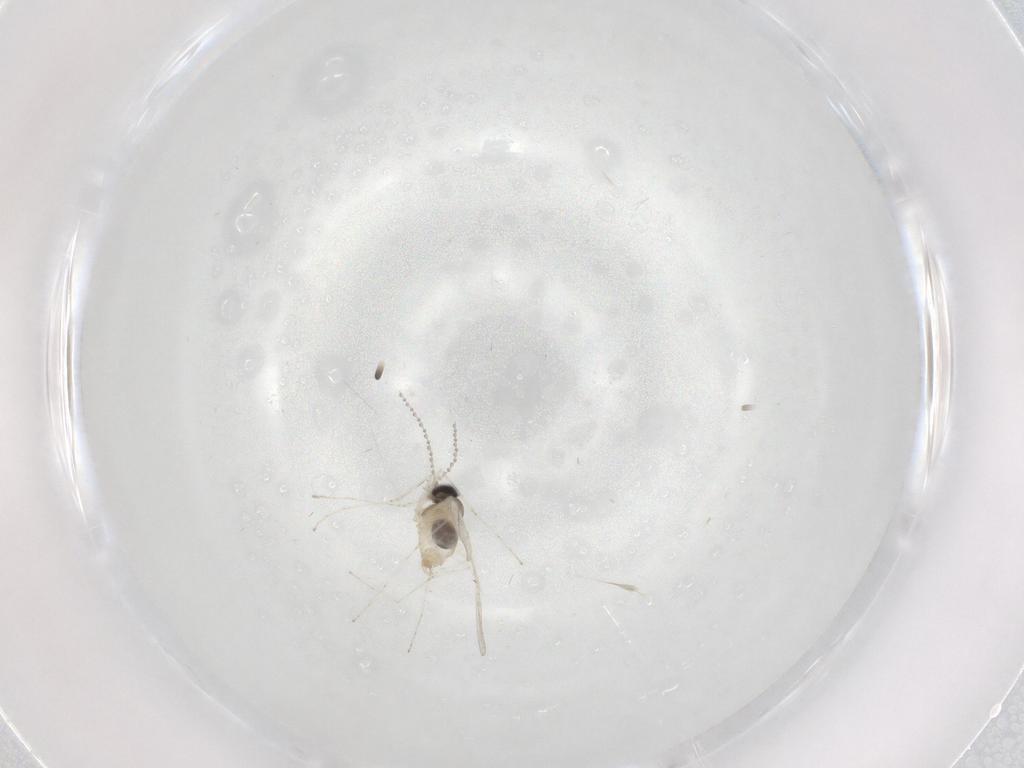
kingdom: Animalia
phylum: Arthropoda
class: Insecta
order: Diptera
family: Cecidomyiidae
